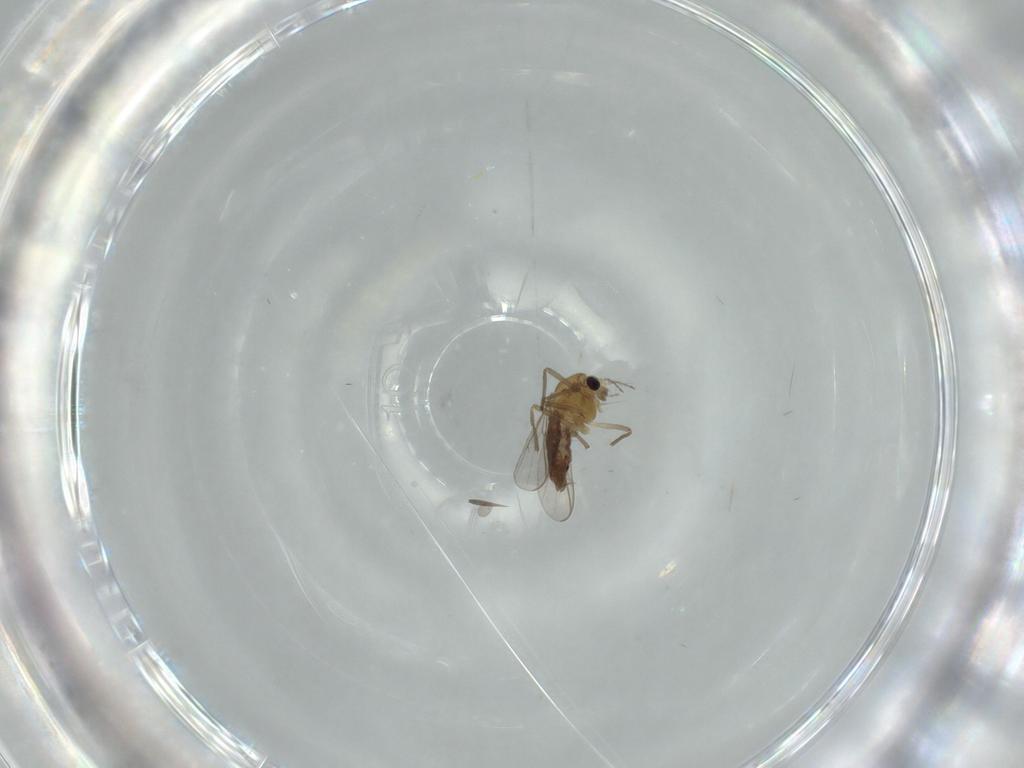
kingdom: Animalia
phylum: Arthropoda
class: Insecta
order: Diptera
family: Chironomidae
